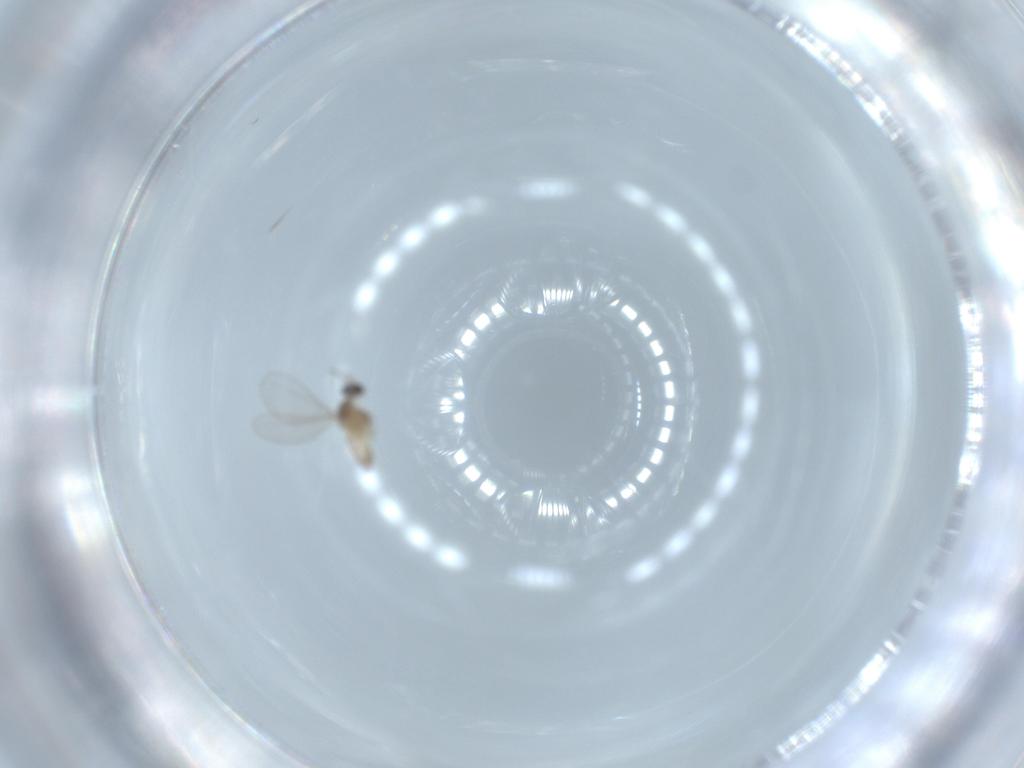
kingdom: Animalia
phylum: Arthropoda
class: Insecta
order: Diptera
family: Cecidomyiidae
